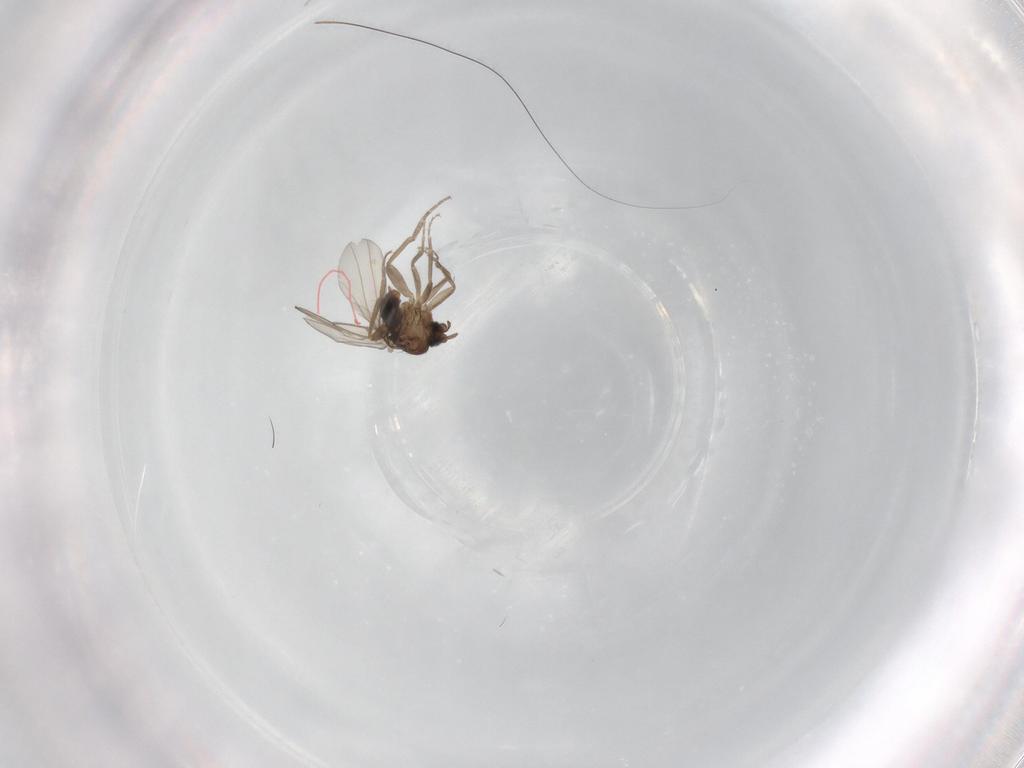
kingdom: Animalia
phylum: Arthropoda
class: Insecta
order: Diptera
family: Phoridae
